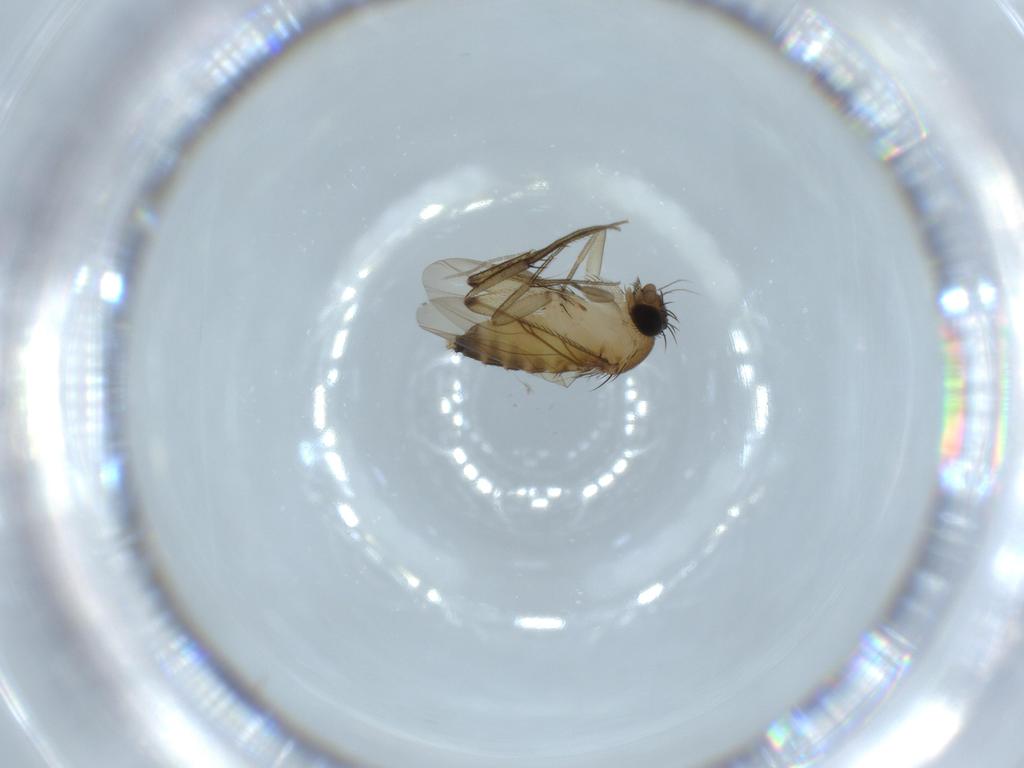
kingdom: Animalia
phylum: Arthropoda
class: Insecta
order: Diptera
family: Phoridae
